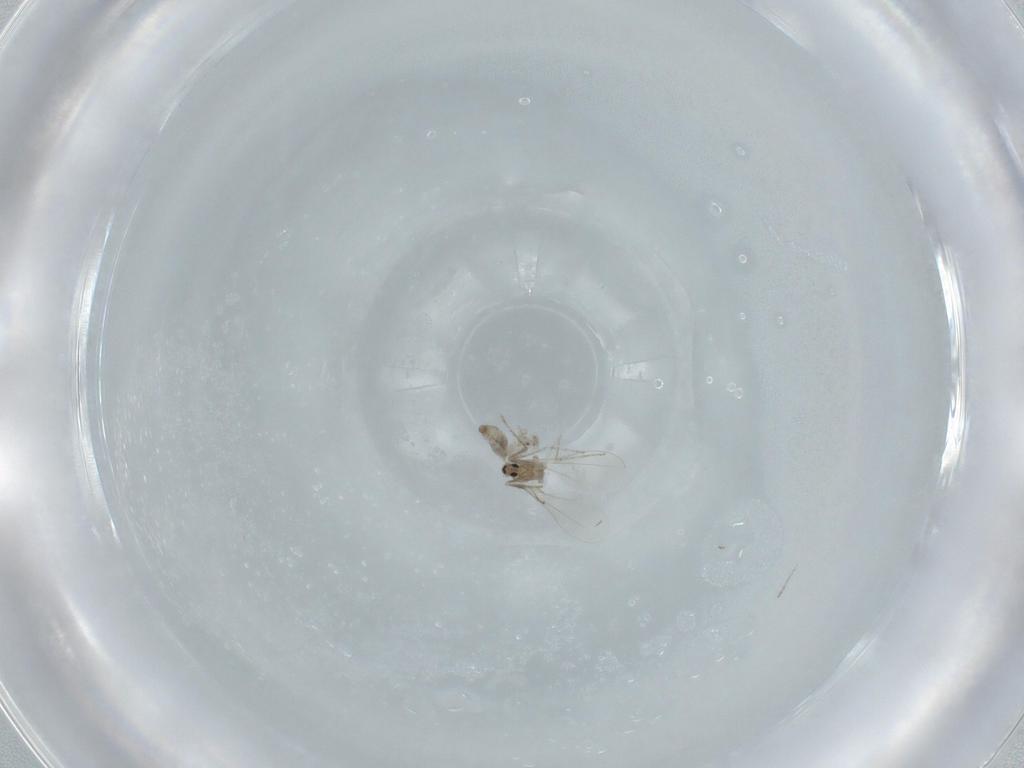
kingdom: Animalia
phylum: Arthropoda
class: Insecta
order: Diptera
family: Cecidomyiidae
